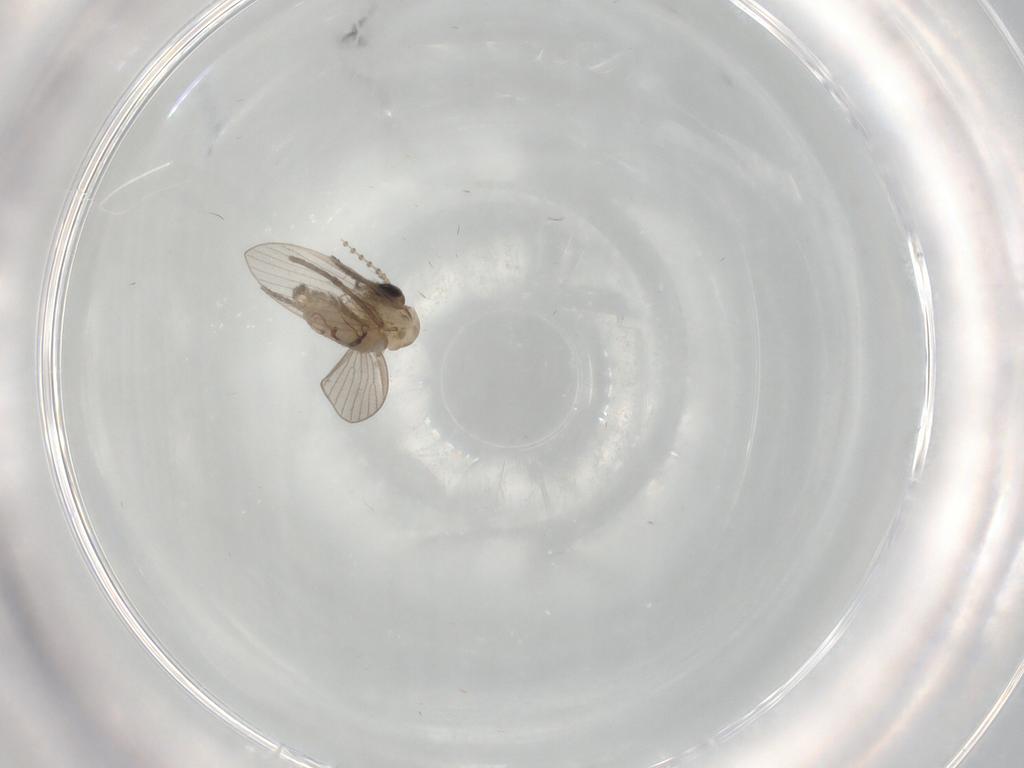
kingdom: Animalia
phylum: Arthropoda
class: Insecta
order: Diptera
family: Psychodidae
